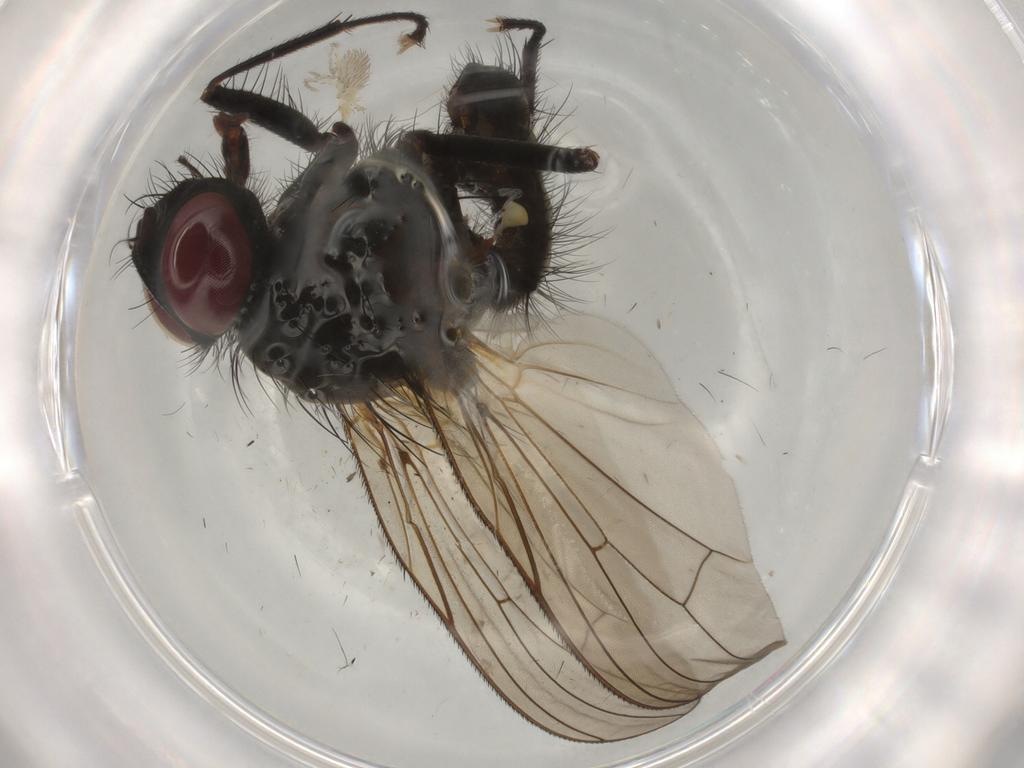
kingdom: Animalia
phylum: Arthropoda
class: Insecta
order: Diptera
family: Anthomyiidae
